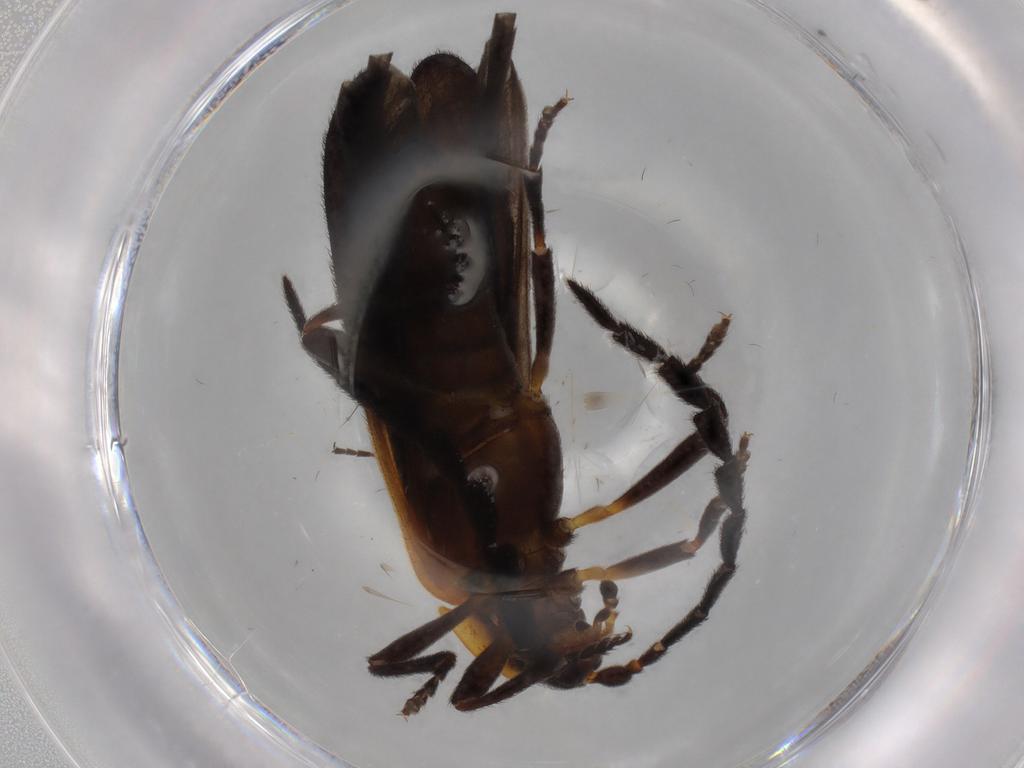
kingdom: Animalia
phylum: Arthropoda
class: Insecta
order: Coleoptera
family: Lycidae
